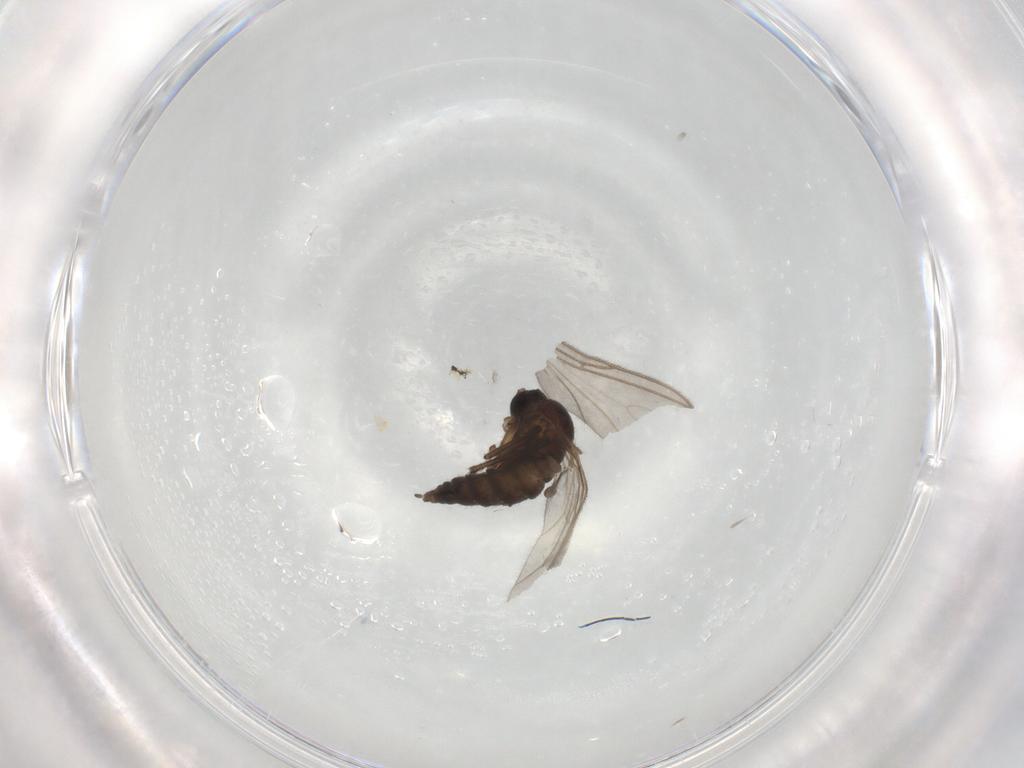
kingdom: Animalia
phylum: Arthropoda
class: Insecta
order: Diptera
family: Sciaridae
